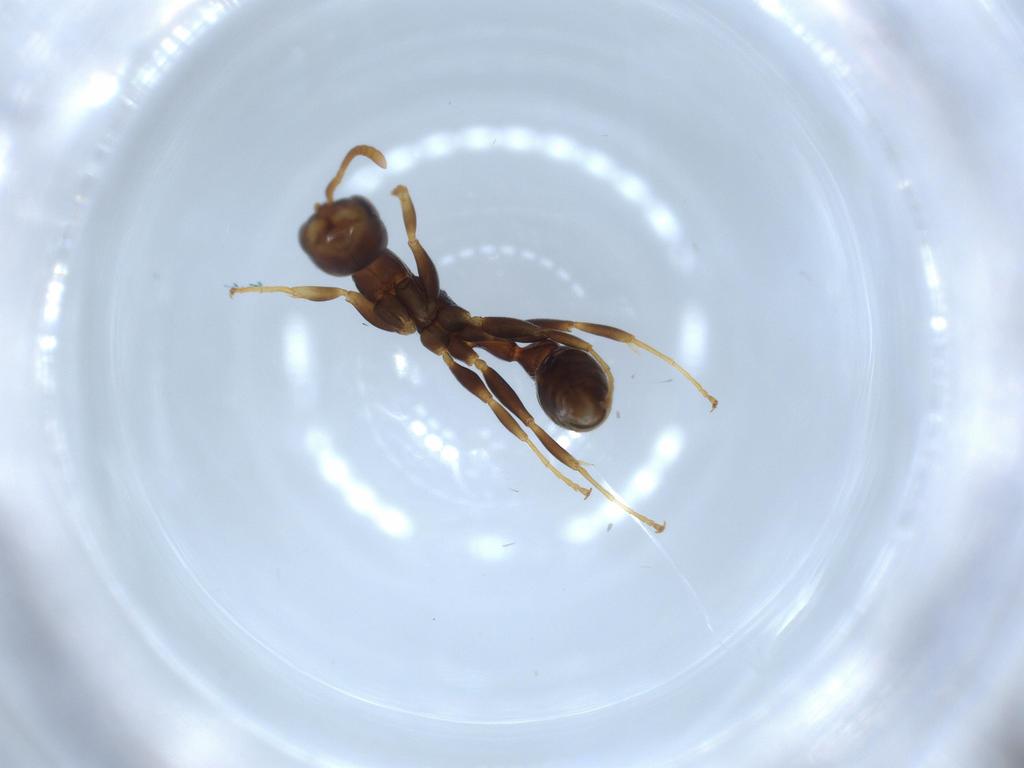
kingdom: Animalia
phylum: Arthropoda
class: Insecta
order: Hymenoptera
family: Formicidae
